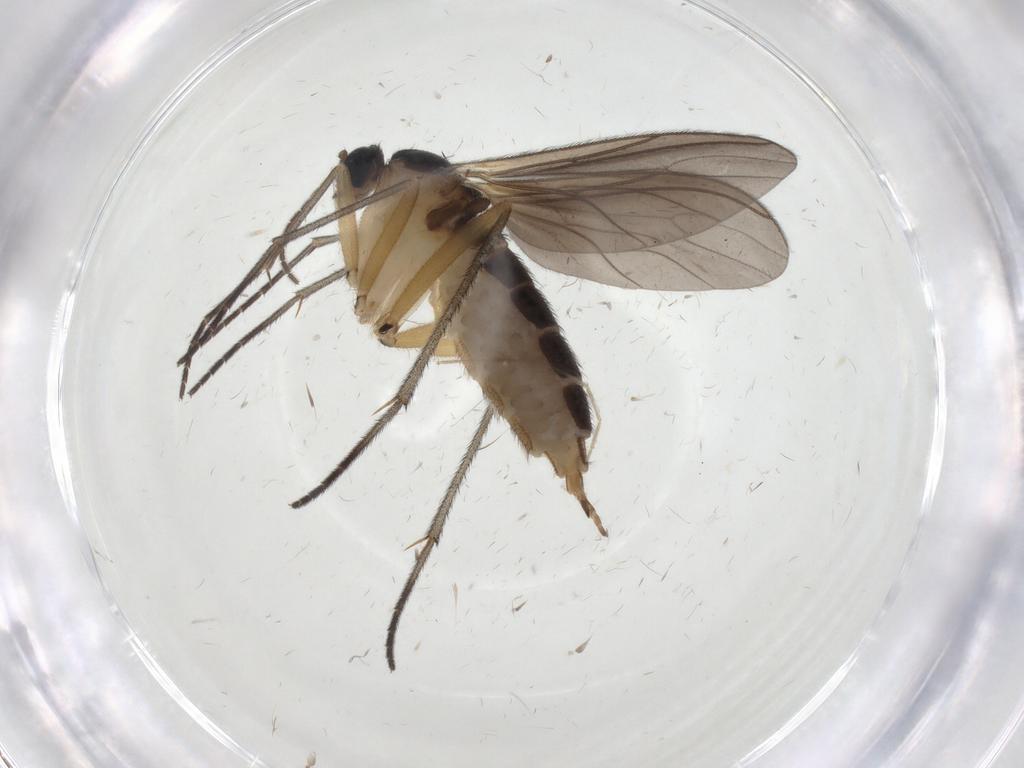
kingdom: Animalia
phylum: Arthropoda
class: Insecta
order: Diptera
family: Sciaridae
